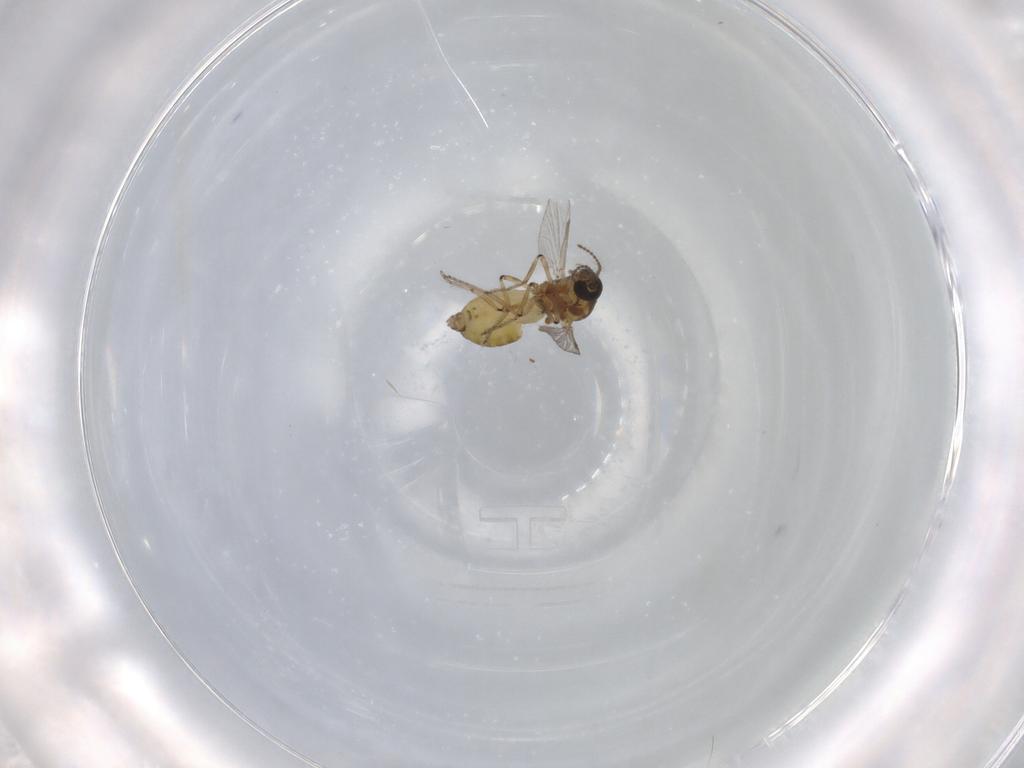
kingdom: Animalia
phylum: Arthropoda
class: Insecta
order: Diptera
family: Ceratopogonidae
